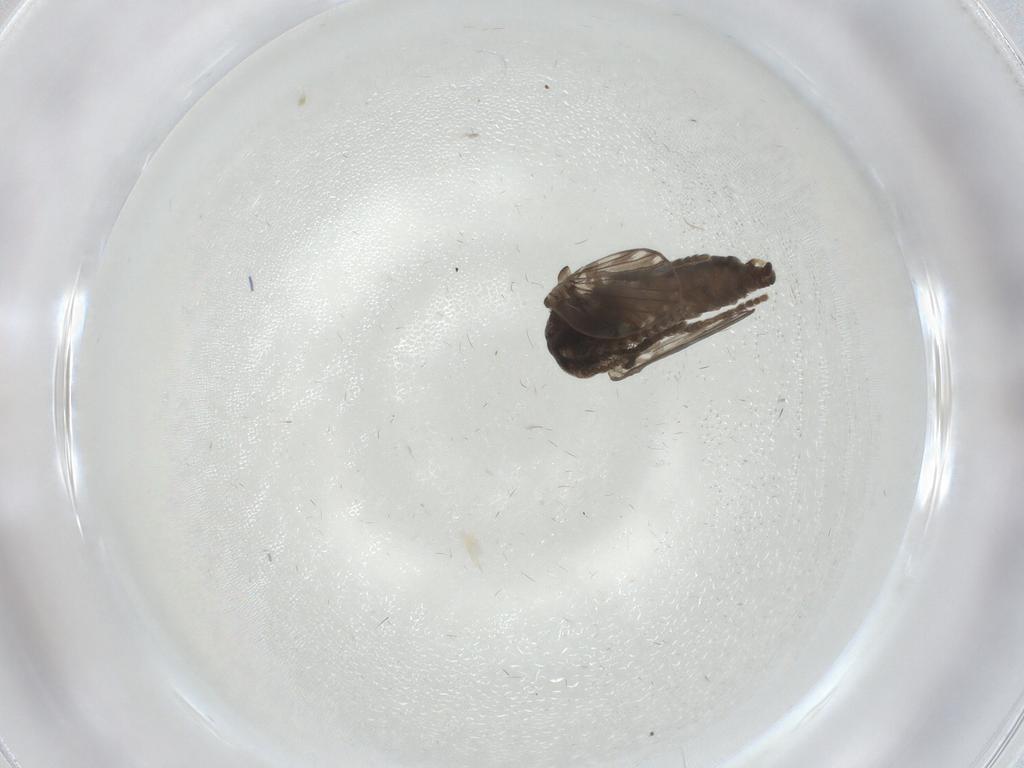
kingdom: Animalia
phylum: Arthropoda
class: Insecta
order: Diptera
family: Psychodidae
